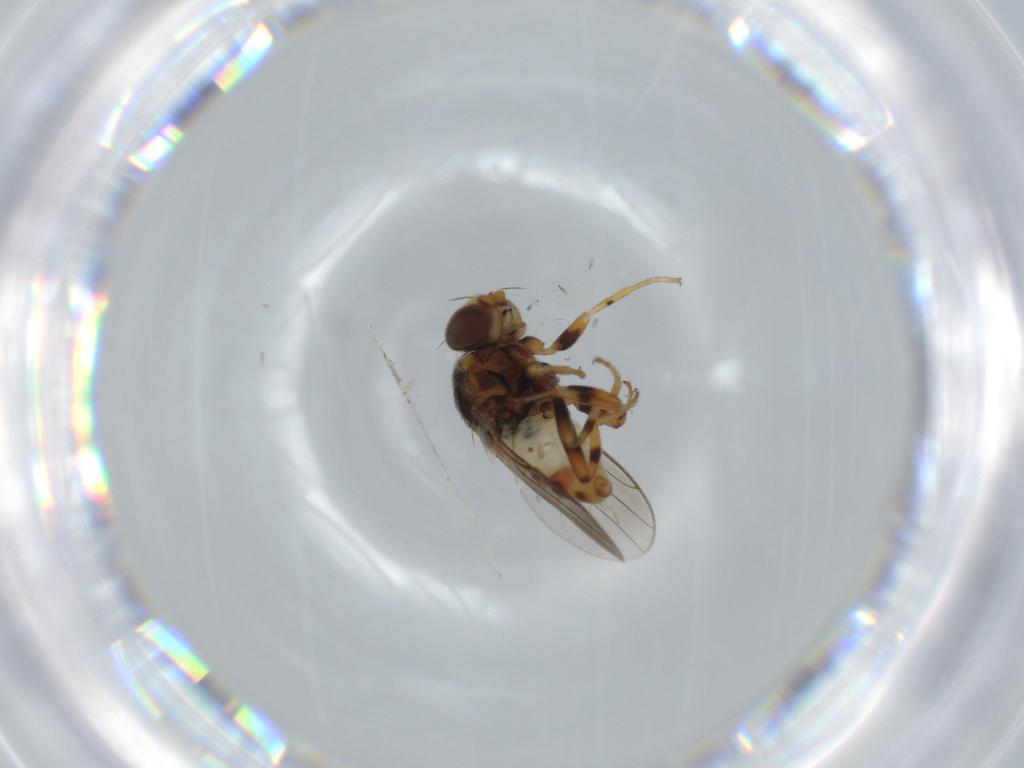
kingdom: Animalia
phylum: Arthropoda
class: Insecta
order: Diptera
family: Chloropidae
